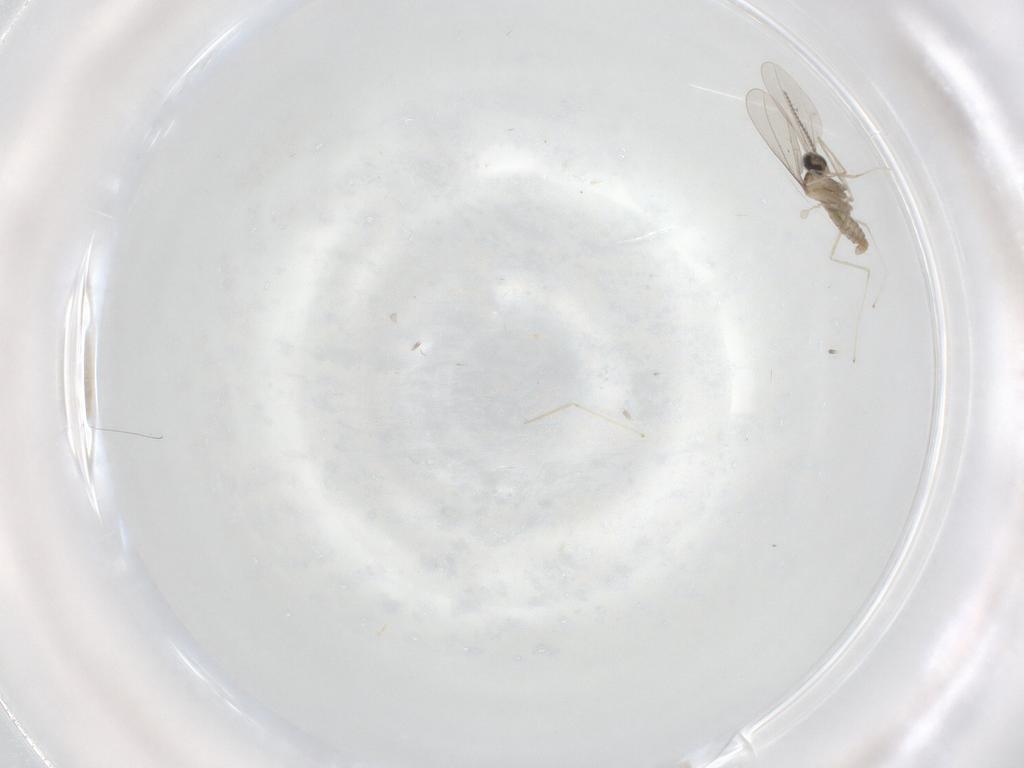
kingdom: Animalia
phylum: Arthropoda
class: Insecta
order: Diptera
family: Cecidomyiidae
